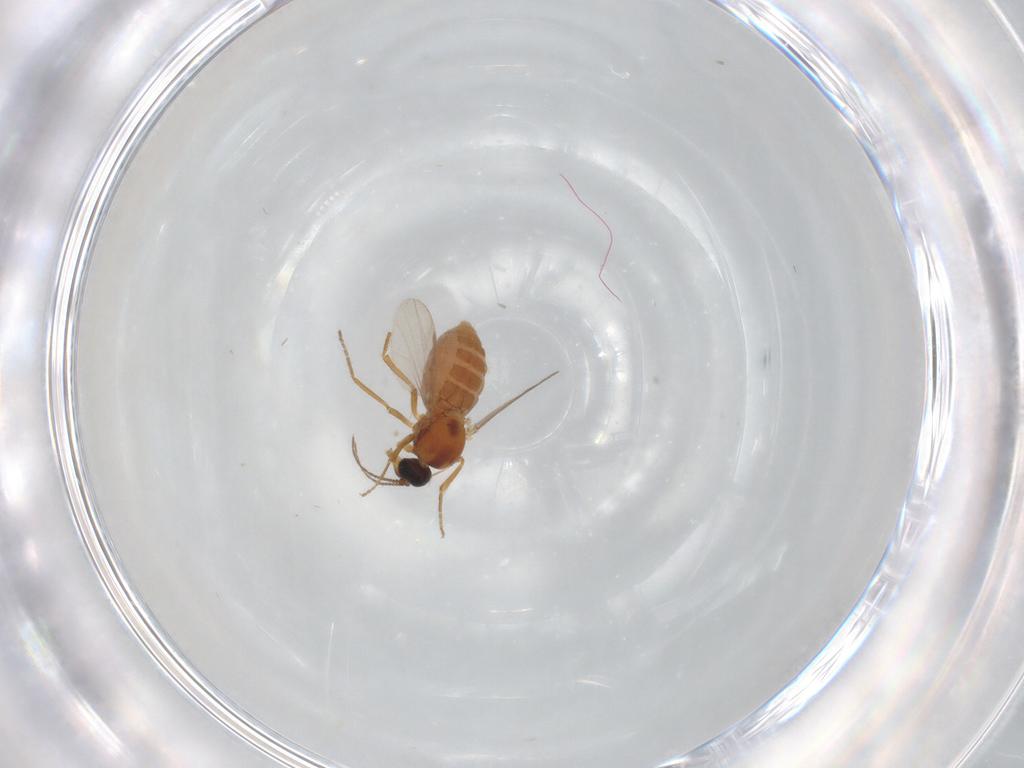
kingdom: Animalia
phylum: Arthropoda
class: Insecta
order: Diptera
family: Ceratopogonidae
